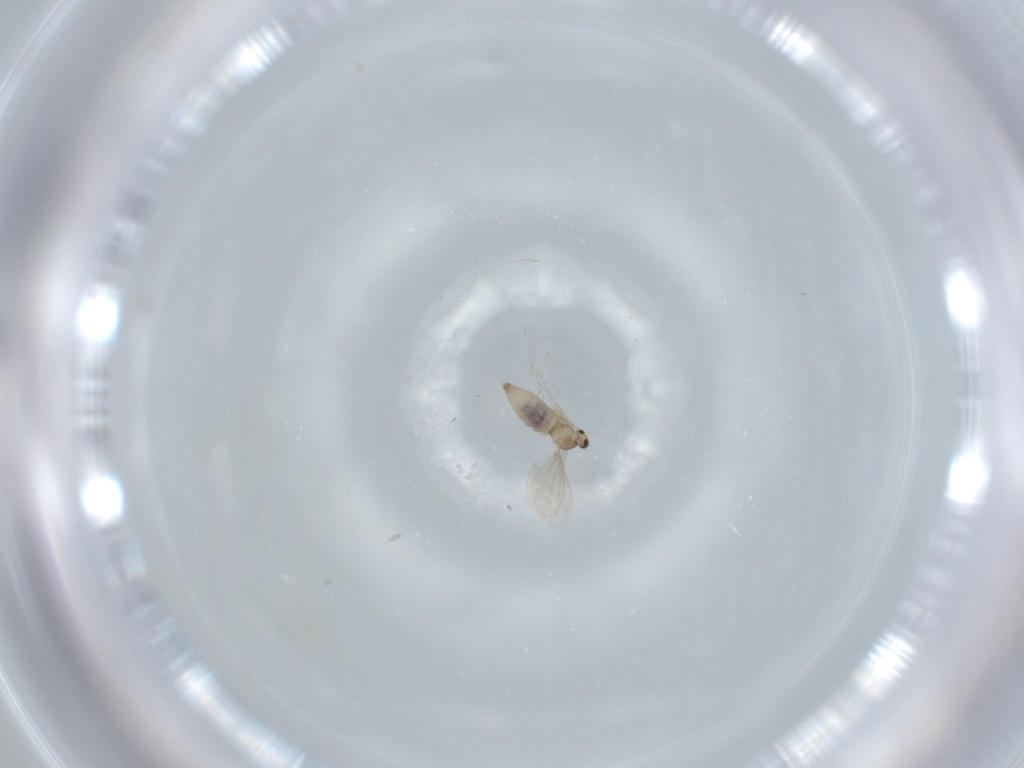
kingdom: Animalia
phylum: Arthropoda
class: Insecta
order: Diptera
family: Cecidomyiidae
